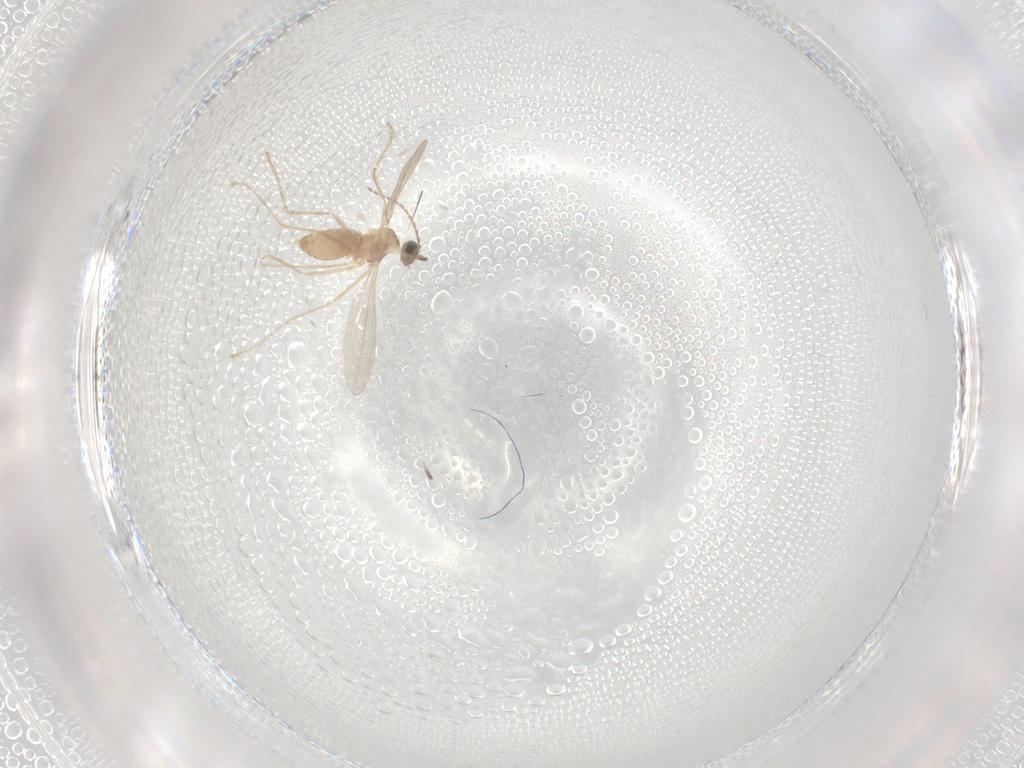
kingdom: Animalia
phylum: Arthropoda
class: Insecta
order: Diptera
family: Cecidomyiidae
